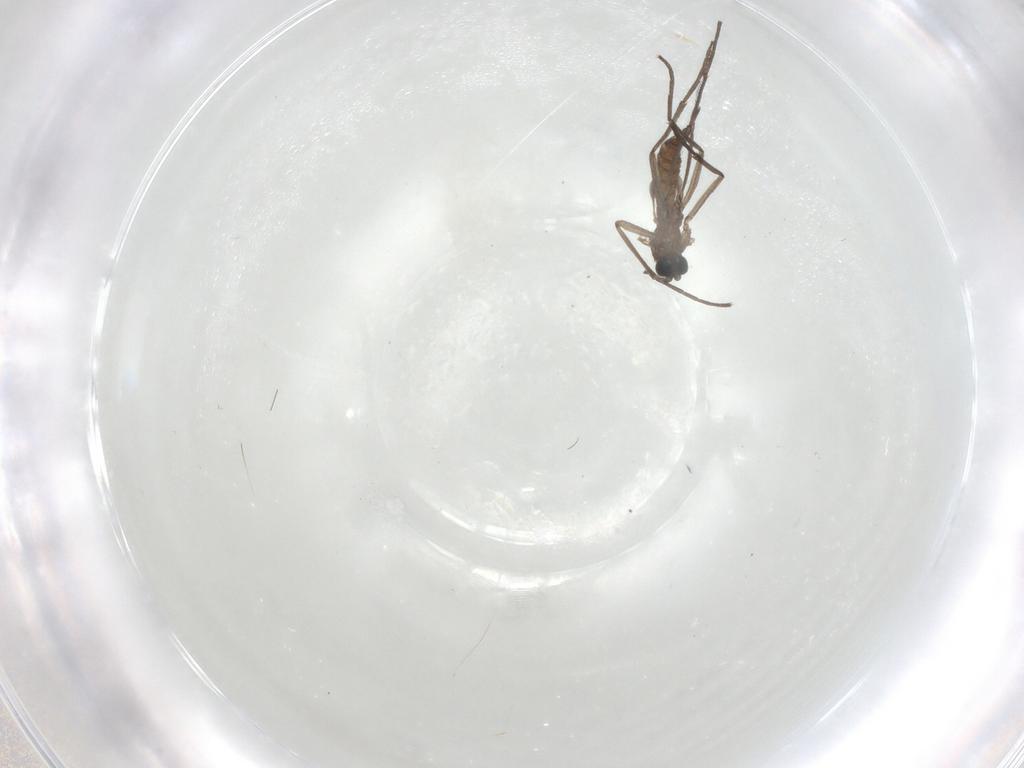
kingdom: Animalia
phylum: Arthropoda
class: Insecta
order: Diptera
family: Sciaridae
